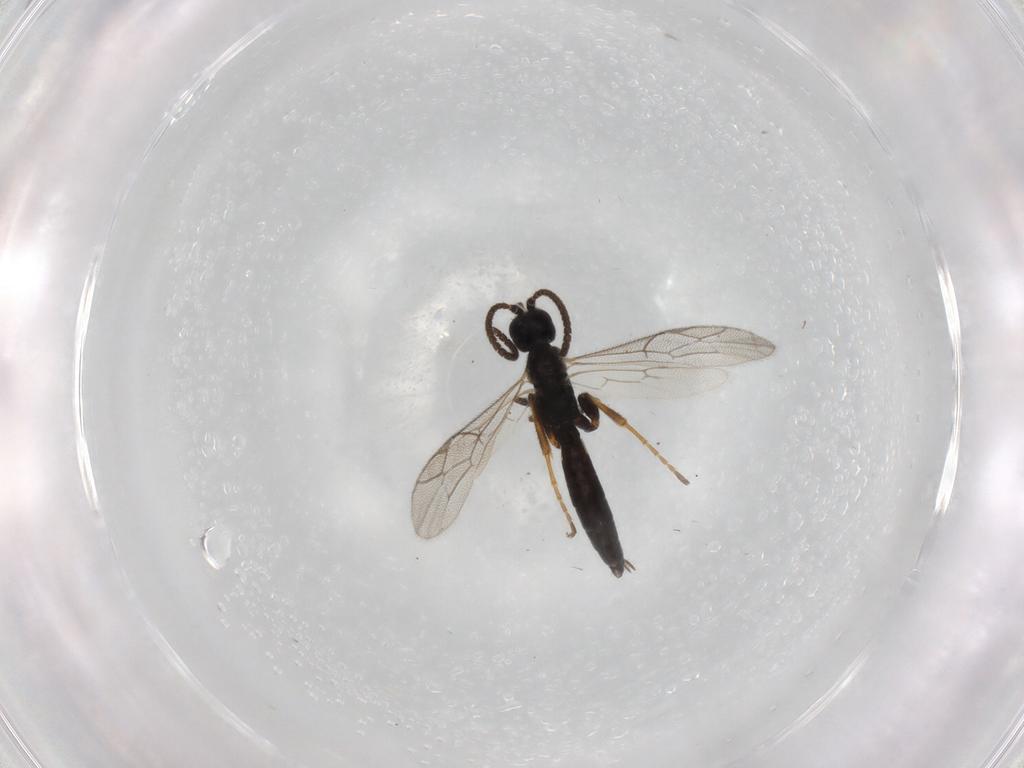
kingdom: Animalia
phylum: Arthropoda
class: Insecta
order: Hymenoptera
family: Ichneumonidae
